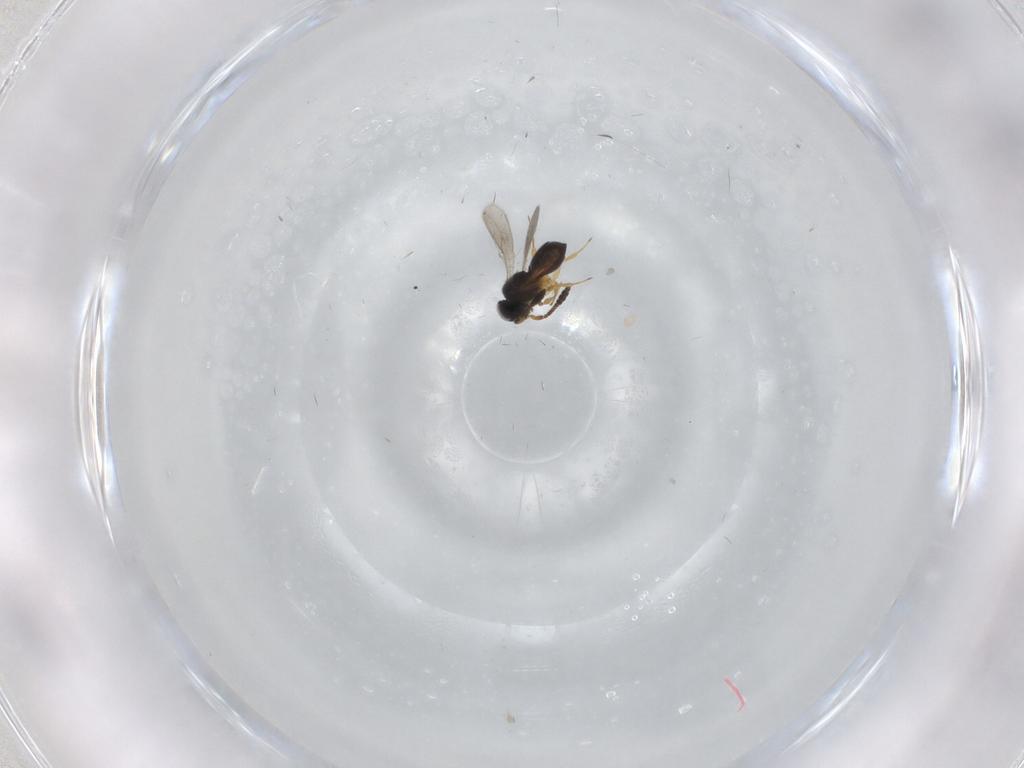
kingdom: Animalia
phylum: Arthropoda
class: Insecta
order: Hymenoptera
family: Scelionidae
